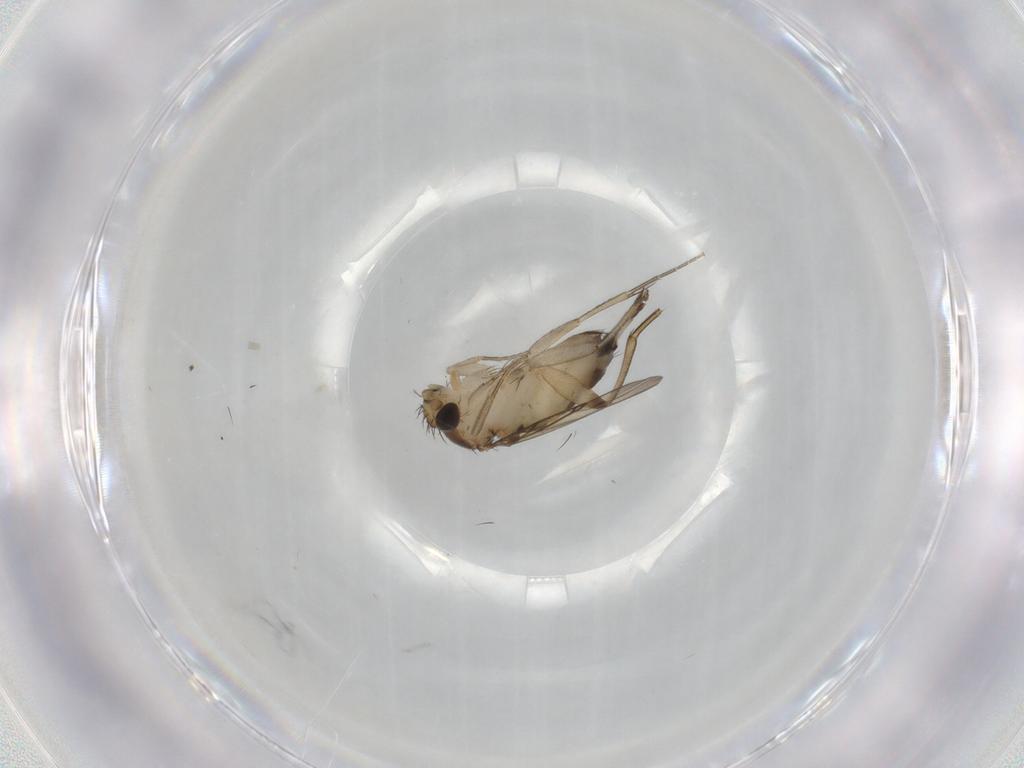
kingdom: Animalia
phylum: Arthropoda
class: Insecta
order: Diptera
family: Phoridae
